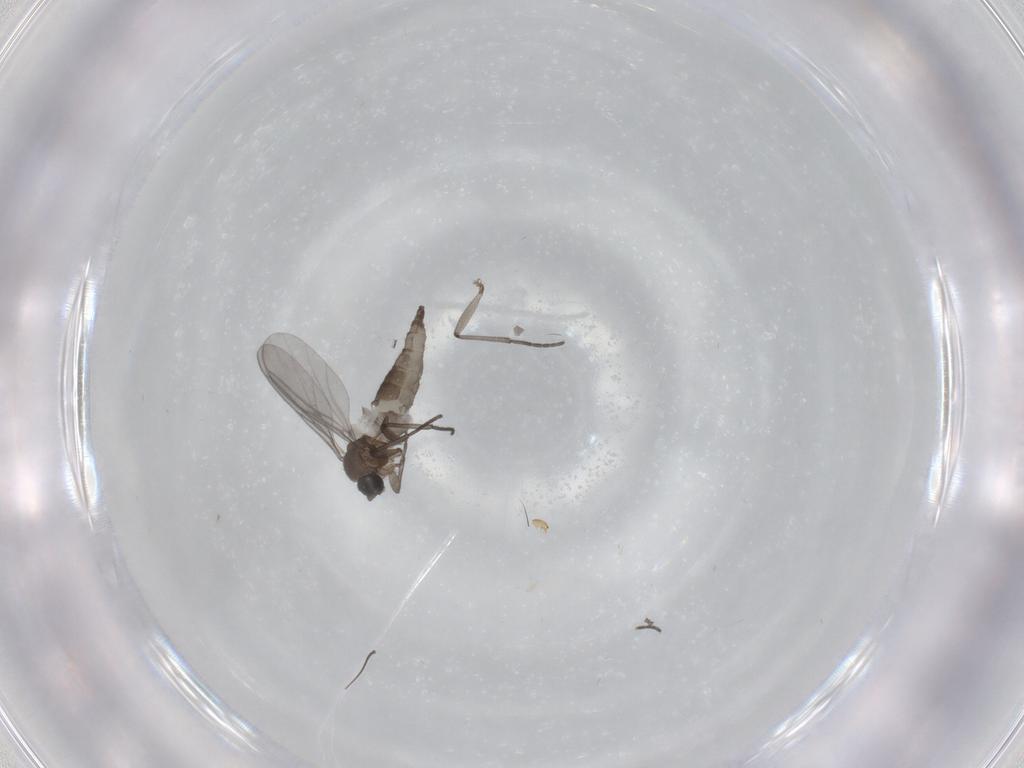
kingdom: Animalia
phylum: Arthropoda
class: Insecta
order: Diptera
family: Sciaridae
